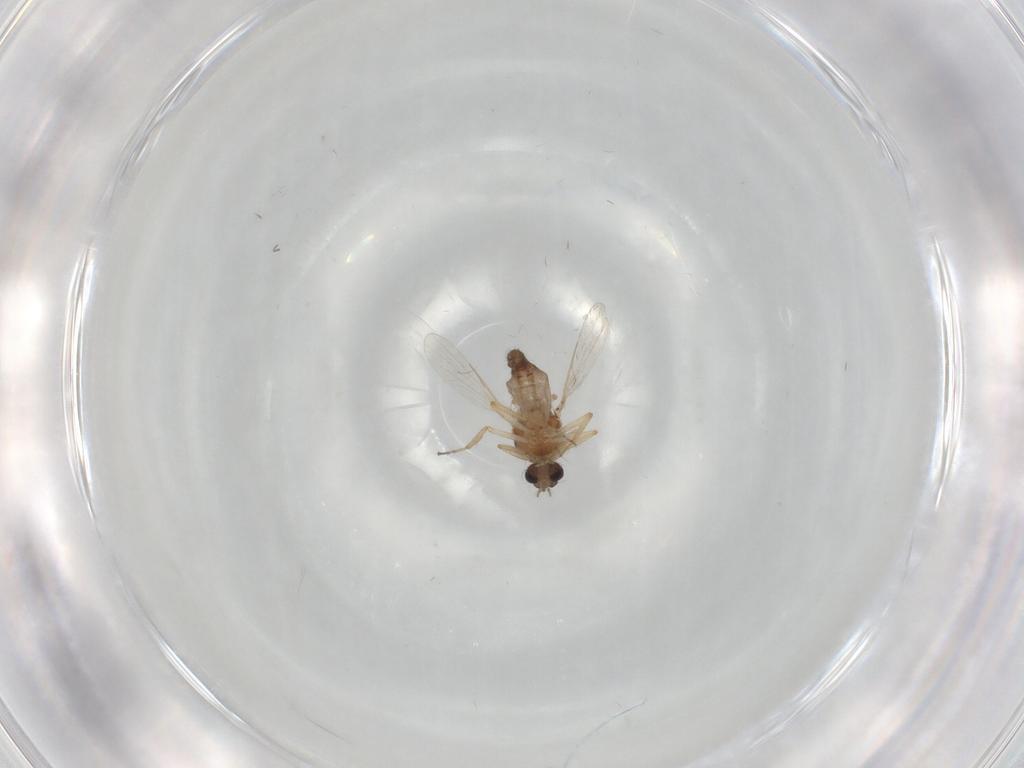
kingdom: Animalia
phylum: Arthropoda
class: Insecta
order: Diptera
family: Ceratopogonidae
